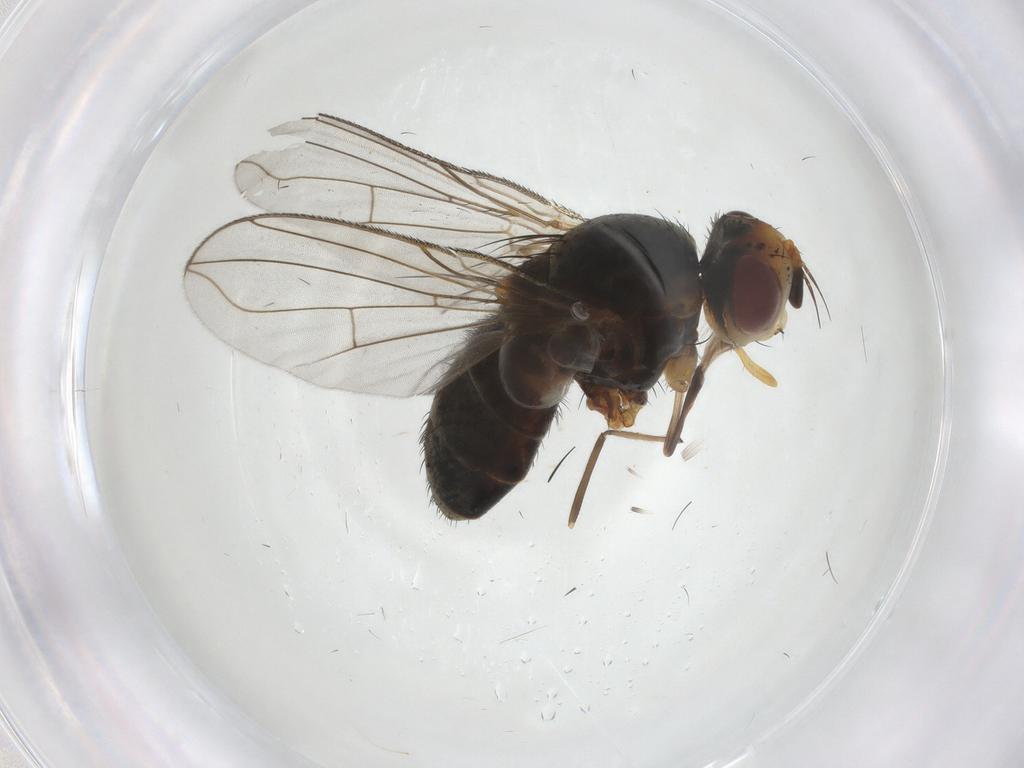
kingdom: Animalia
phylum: Arthropoda
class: Insecta
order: Diptera
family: Tachinidae
